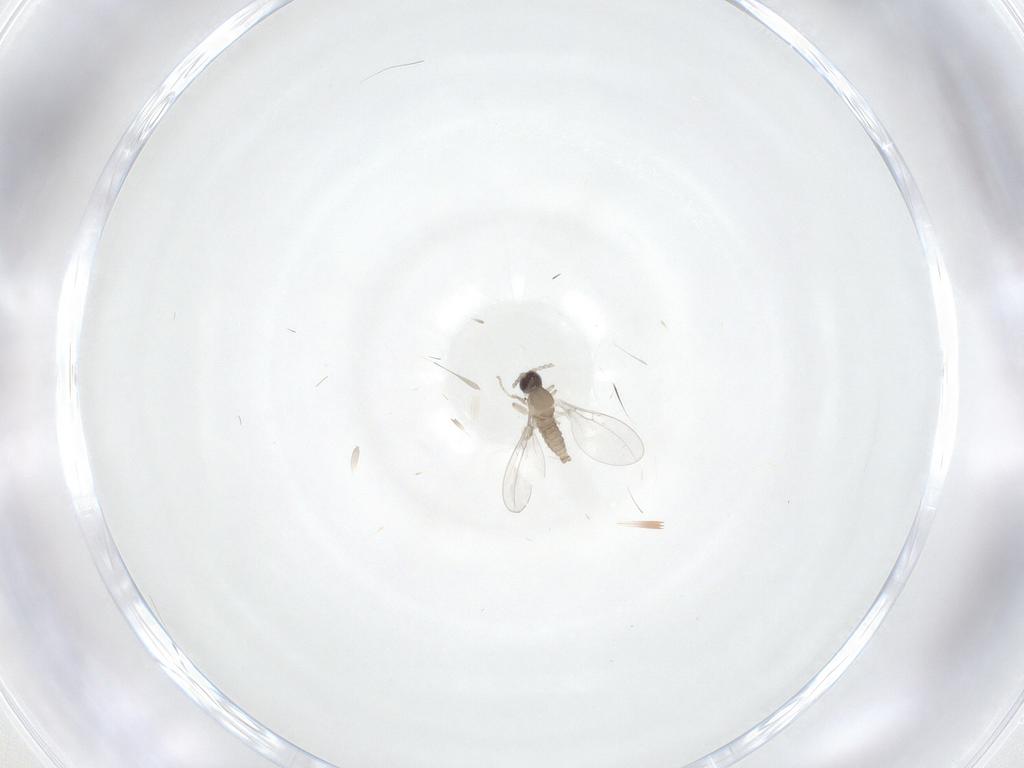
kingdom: Animalia
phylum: Arthropoda
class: Insecta
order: Diptera
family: Cecidomyiidae
